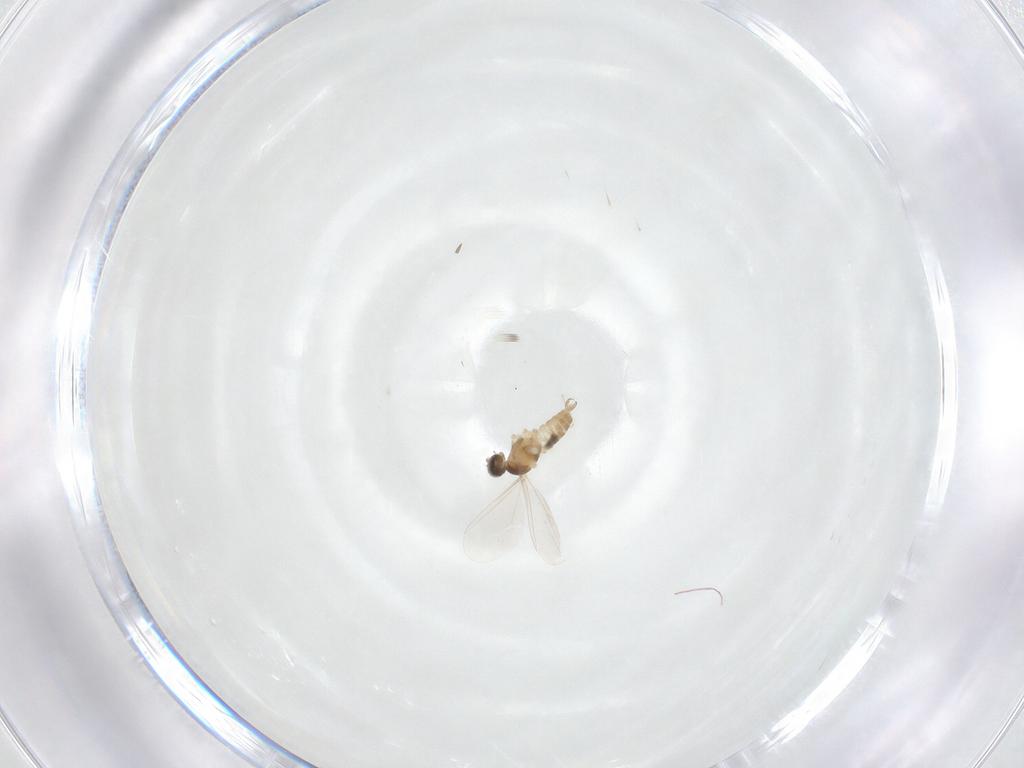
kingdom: Animalia
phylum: Arthropoda
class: Insecta
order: Diptera
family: Cecidomyiidae
